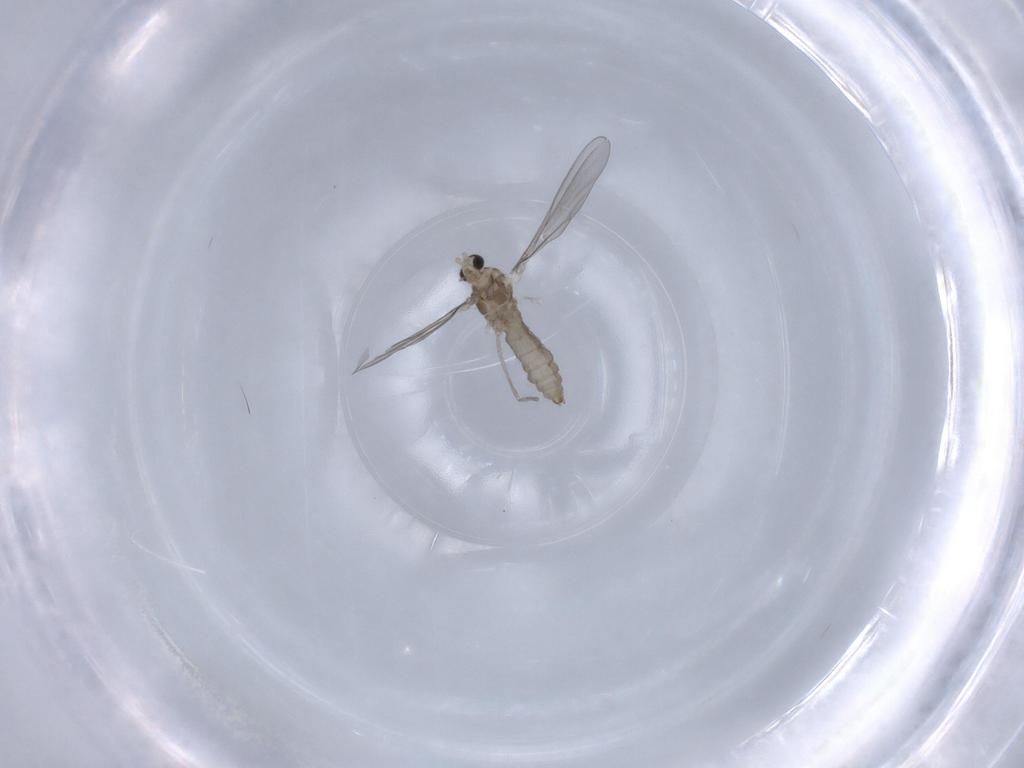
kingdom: Animalia
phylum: Arthropoda
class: Insecta
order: Diptera
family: Cecidomyiidae
